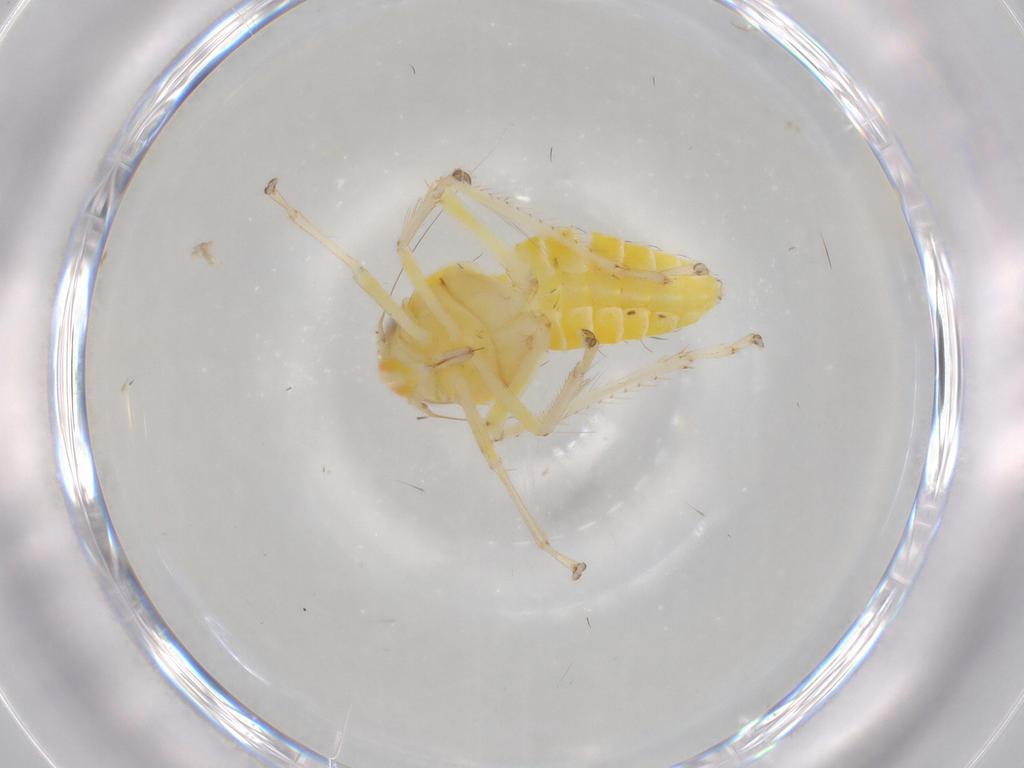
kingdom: Animalia
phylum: Arthropoda
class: Insecta
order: Hemiptera
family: Cicadellidae
